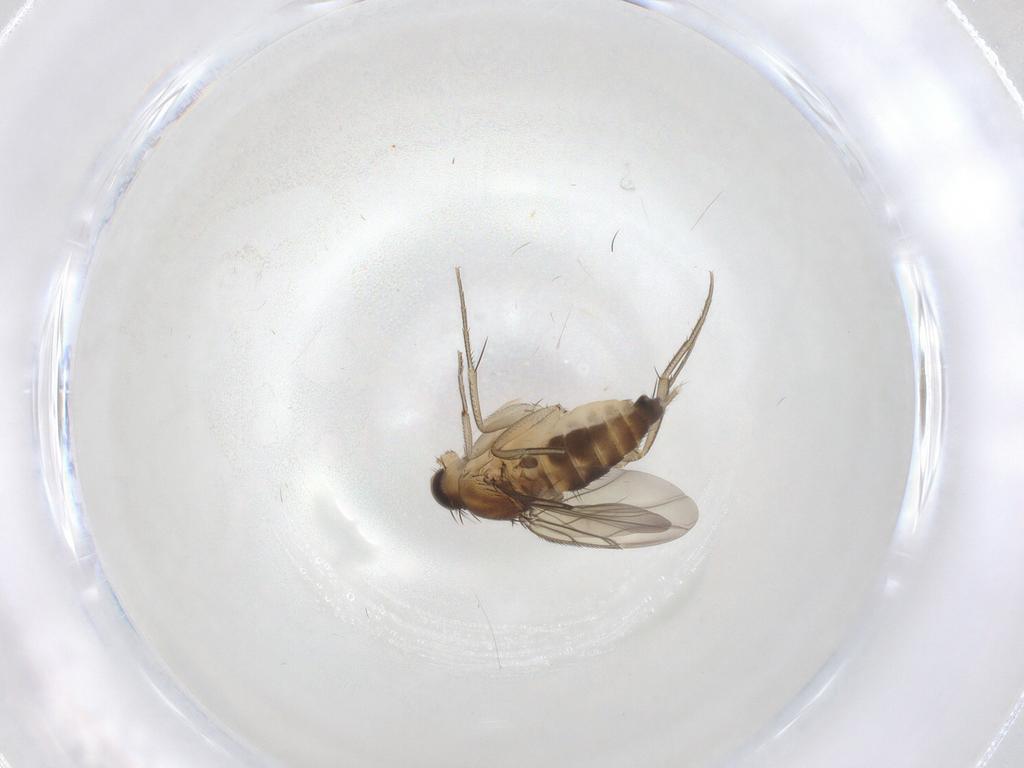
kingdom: Animalia
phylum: Arthropoda
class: Insecta
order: Diptera
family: Phoridae
